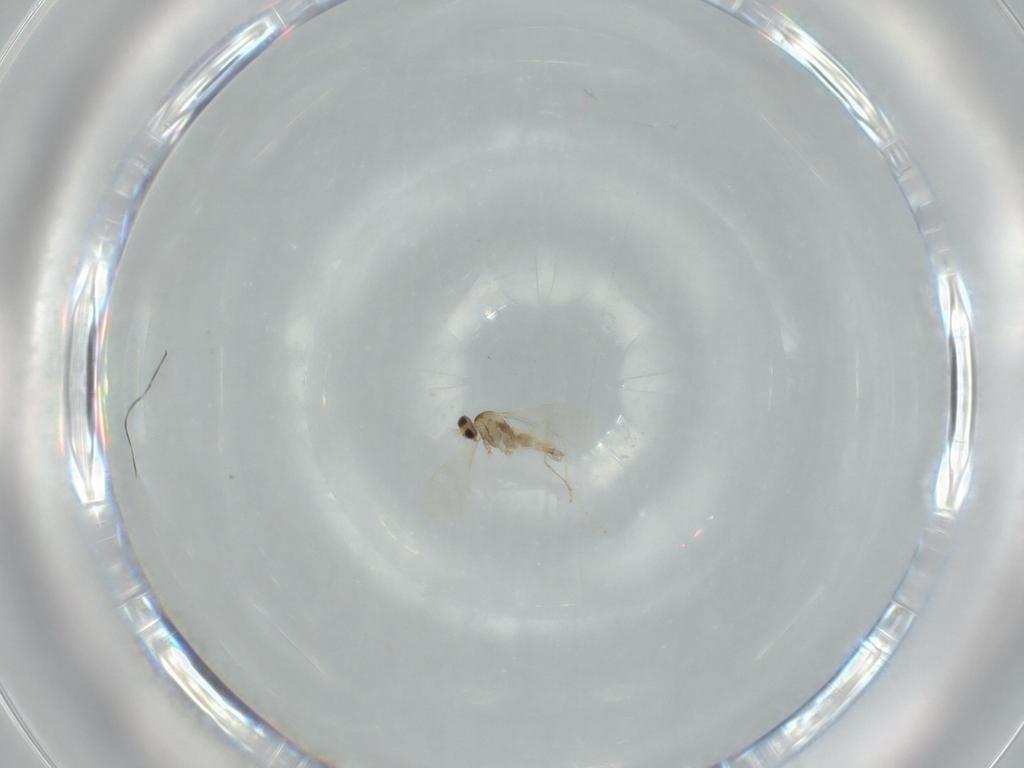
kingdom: Animalia
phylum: Arthropoda
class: Insecta
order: Diptera
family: Cecidomyiidae
